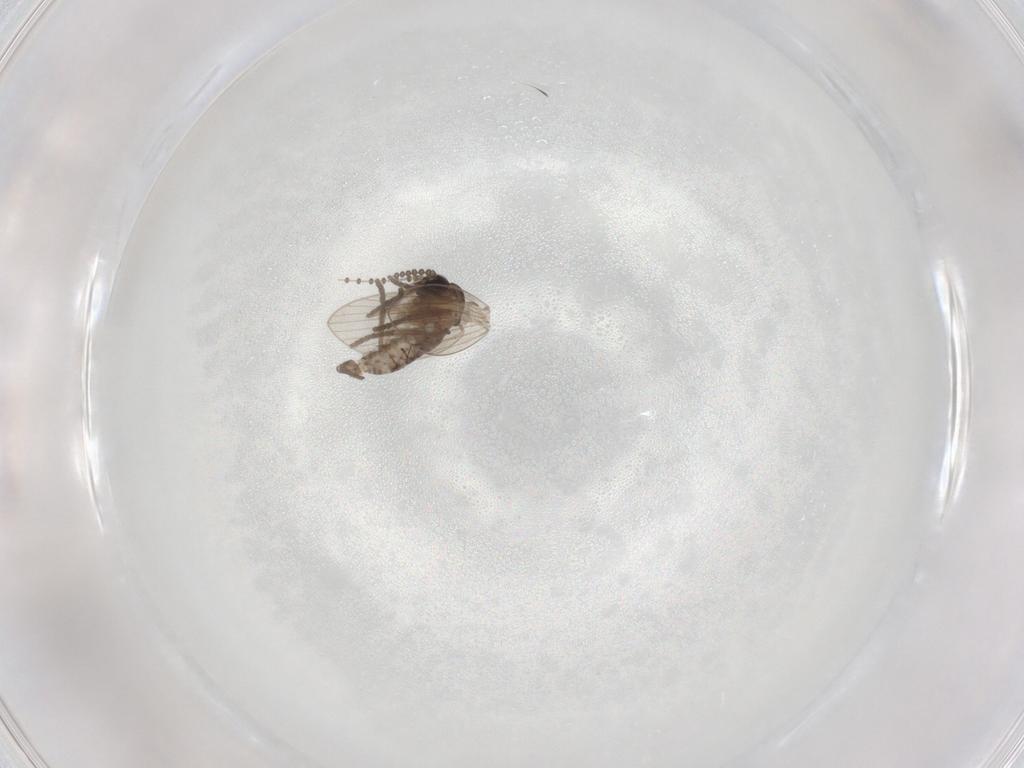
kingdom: Animalia
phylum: Arthropoda
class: Insecta
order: Diptera
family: Psychodidae
